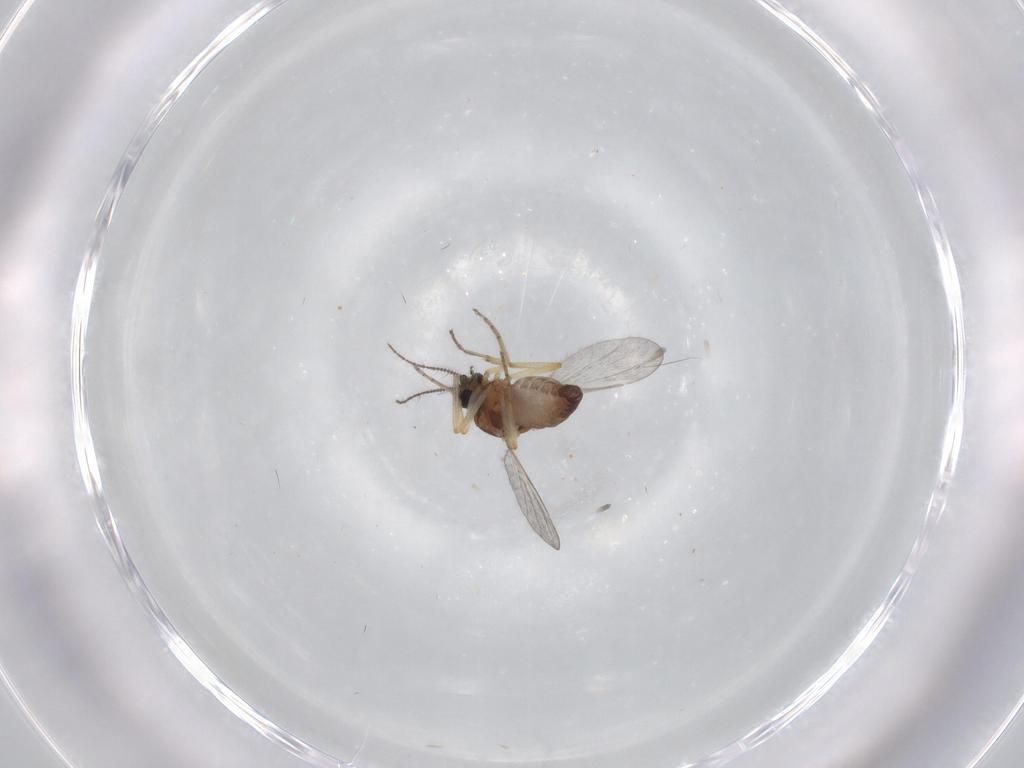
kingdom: Animalia
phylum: Arthropoda
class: Insecta
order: Diptera
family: Ceratopogonidae
